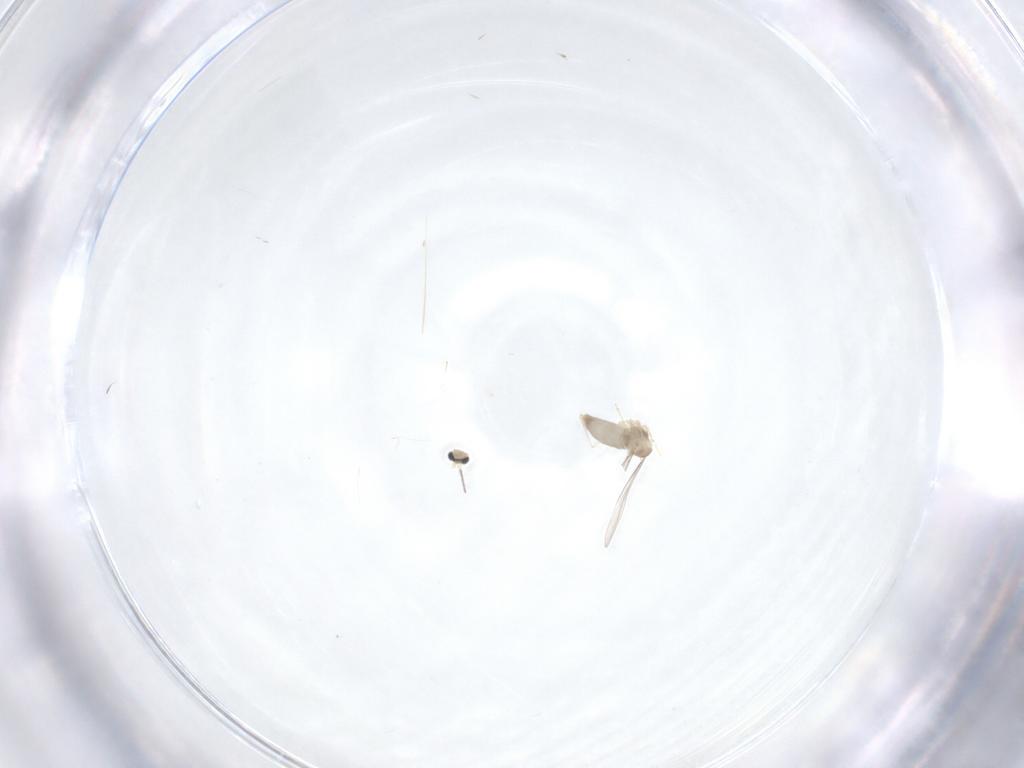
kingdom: Animalia
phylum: Arthropoda
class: Insecta
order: Diptera
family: Cecidomyiidae
